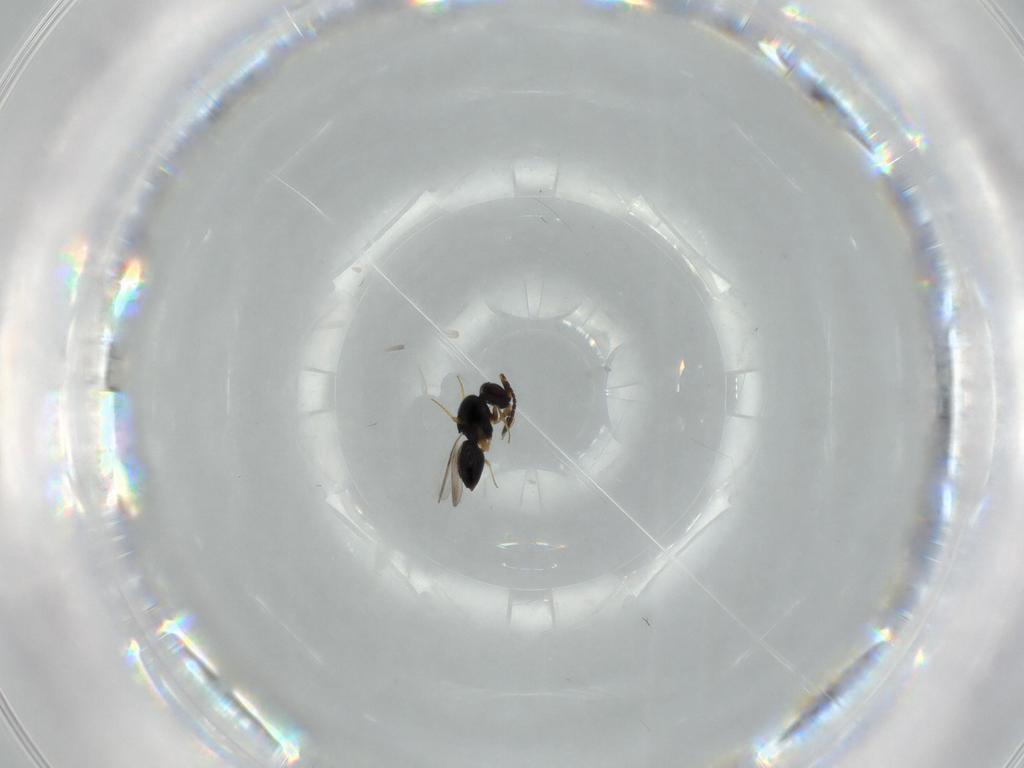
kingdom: Animalia
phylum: Arthropoda
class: Insecta
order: Hymenoptera
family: Ceraphronidae
